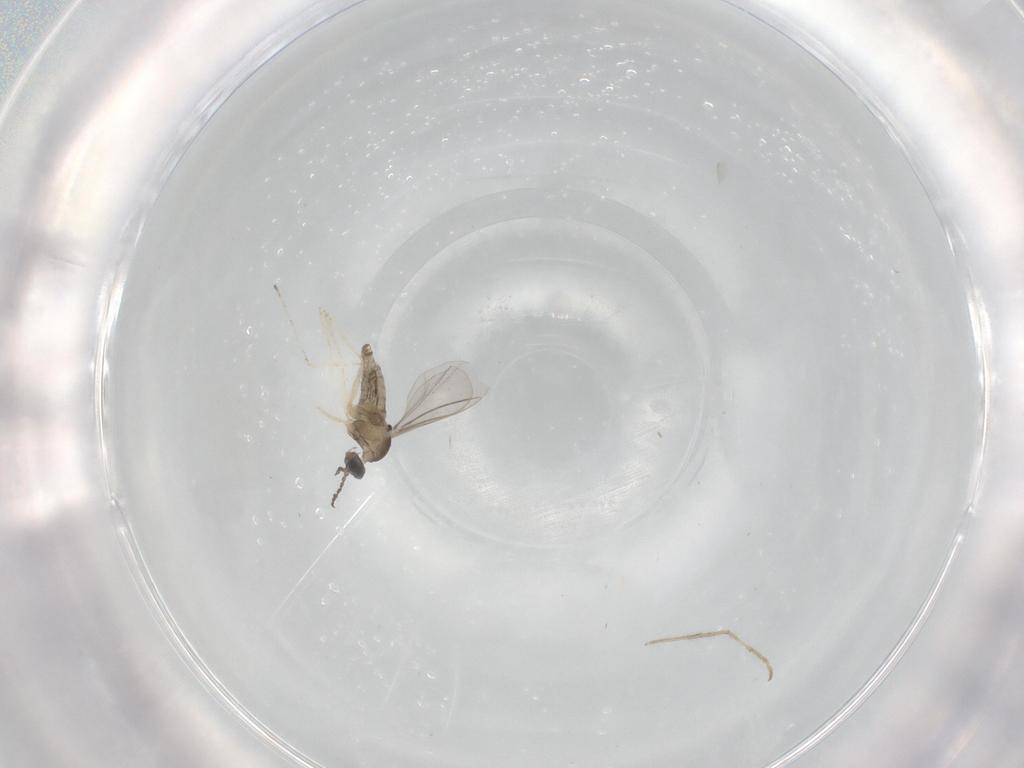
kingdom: Animalia
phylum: Arthropoda
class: Insecta
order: Diptera
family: Cecidomyiidae
